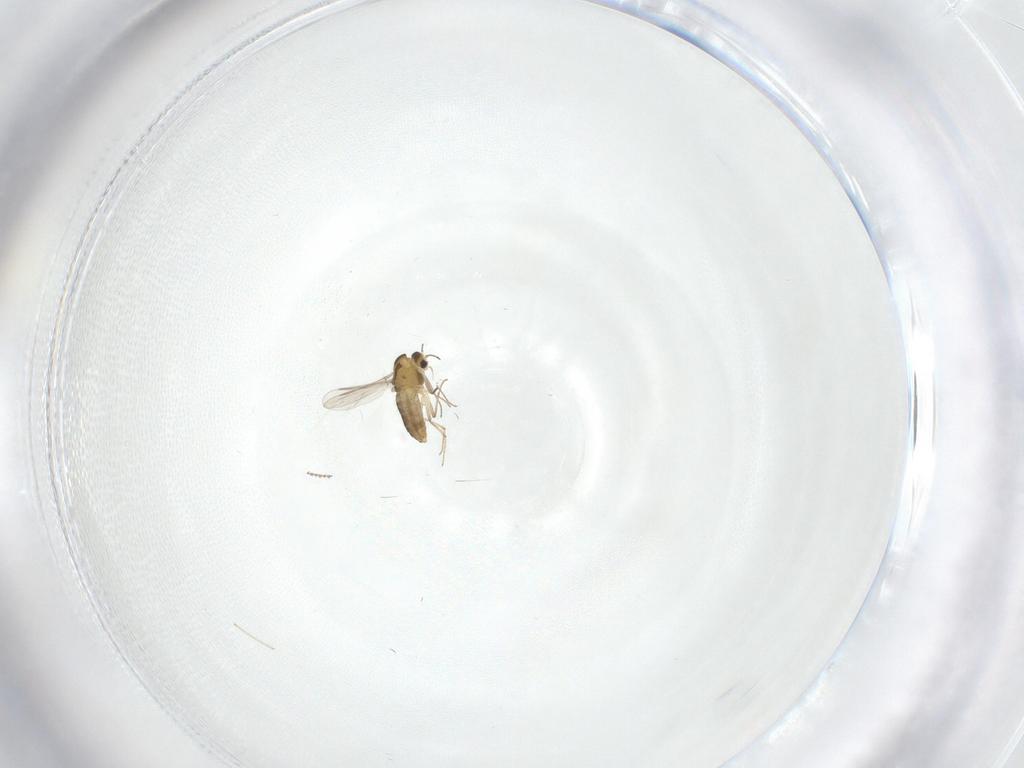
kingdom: Animalia
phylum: Arthropoda
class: Insecta
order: Diptera
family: Cecidomyiidae
